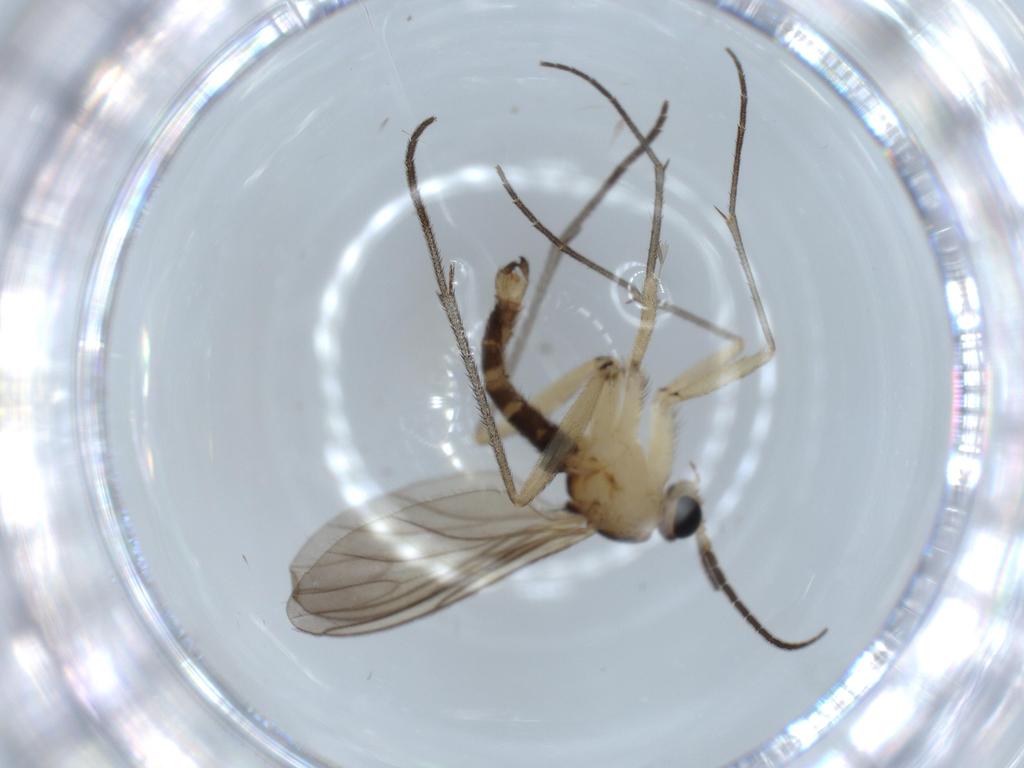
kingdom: Animalia
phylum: Arthropoda
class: Insecta
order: Diptera
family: Sciaridae
